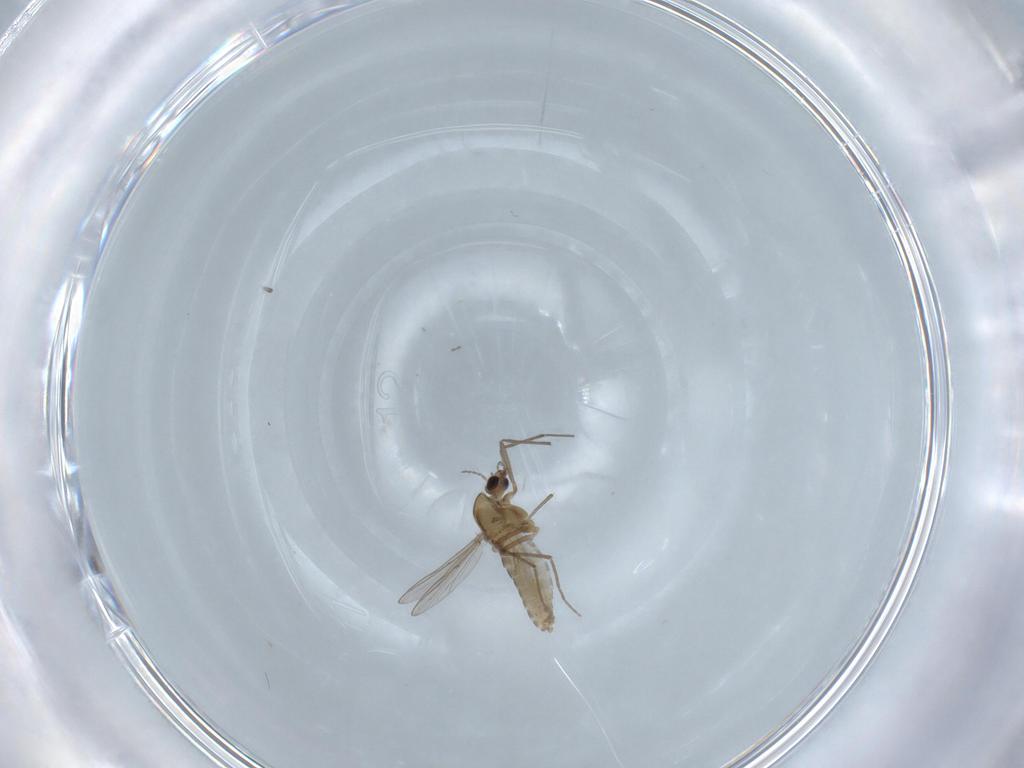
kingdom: Animalia
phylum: Arthropoda
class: Insecta
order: Diptera
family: Chironomidae
